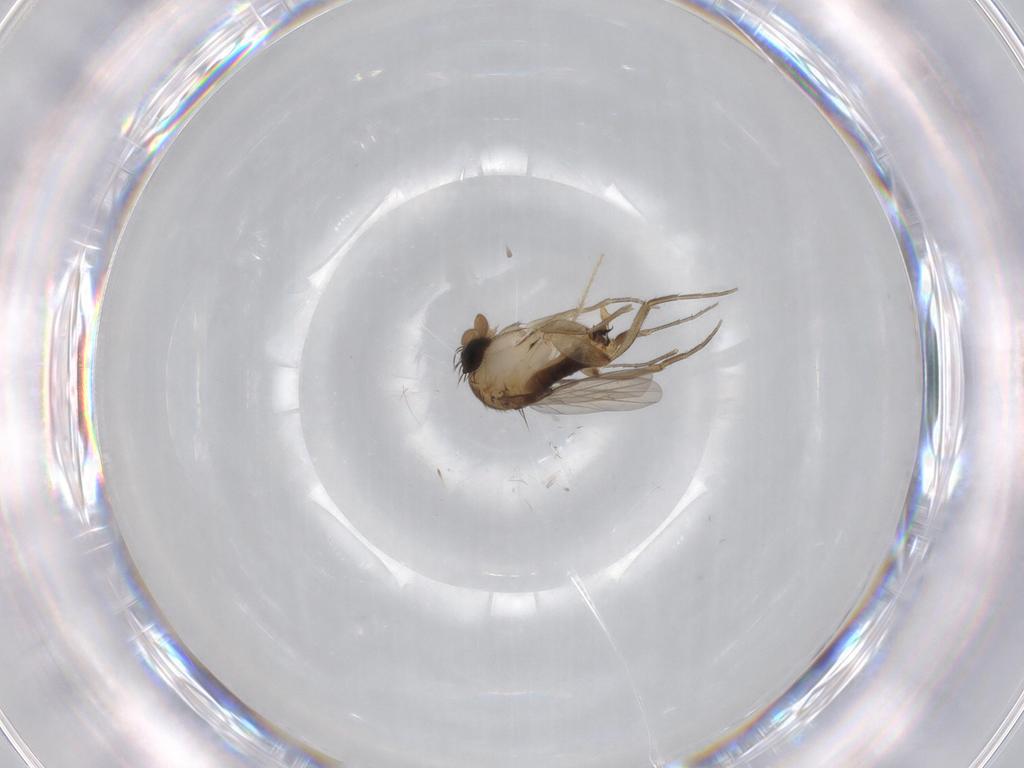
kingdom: Animalia
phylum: Arthropoda
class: Insecta
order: Diptera
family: Phoridae
